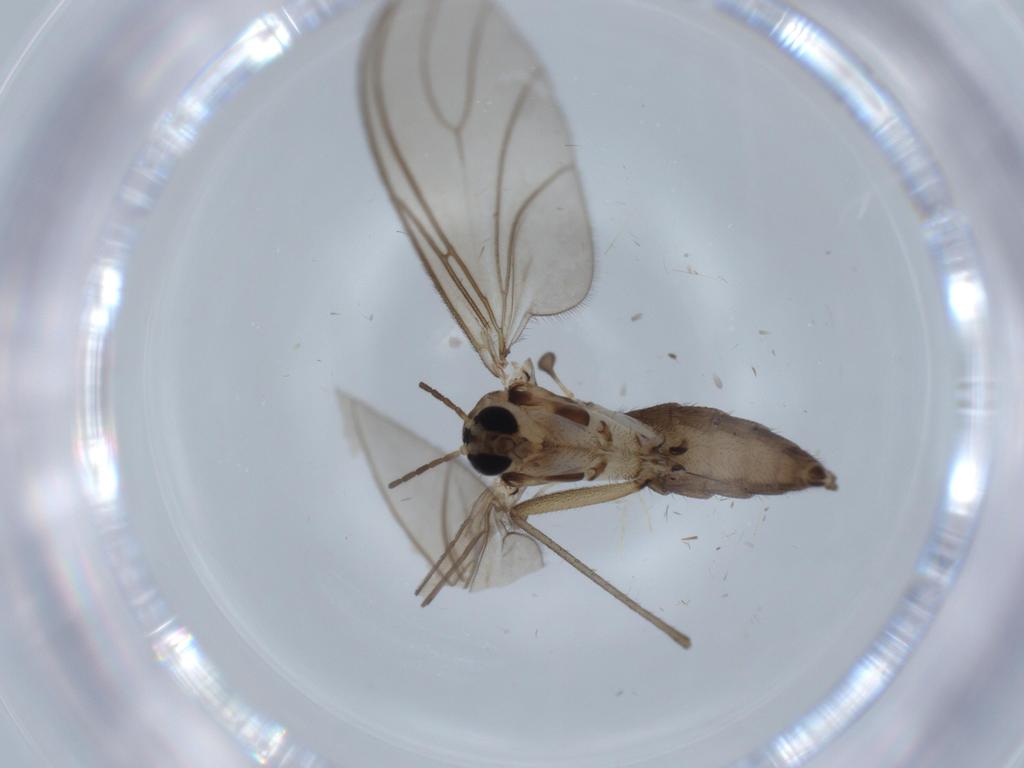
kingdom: Animalia
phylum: Arthropoda
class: Insecta
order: Diptera
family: Sciaridae
